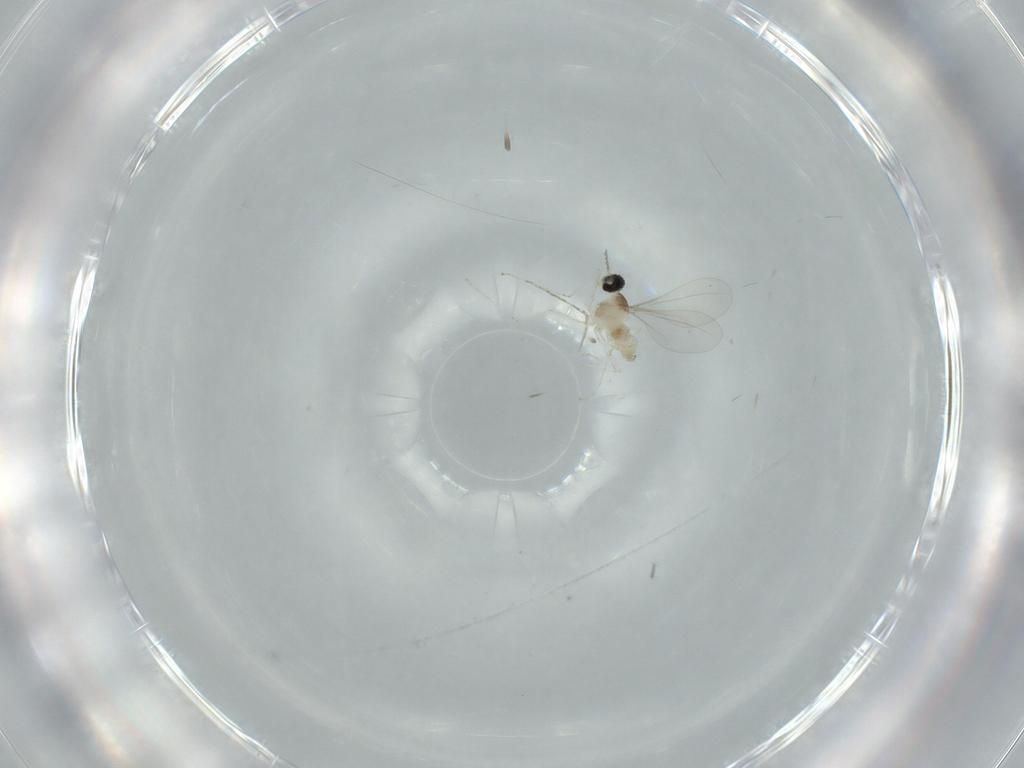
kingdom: Animalia
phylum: Arthropoda
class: Insecta
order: Diptera
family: Cecidomyiidae
